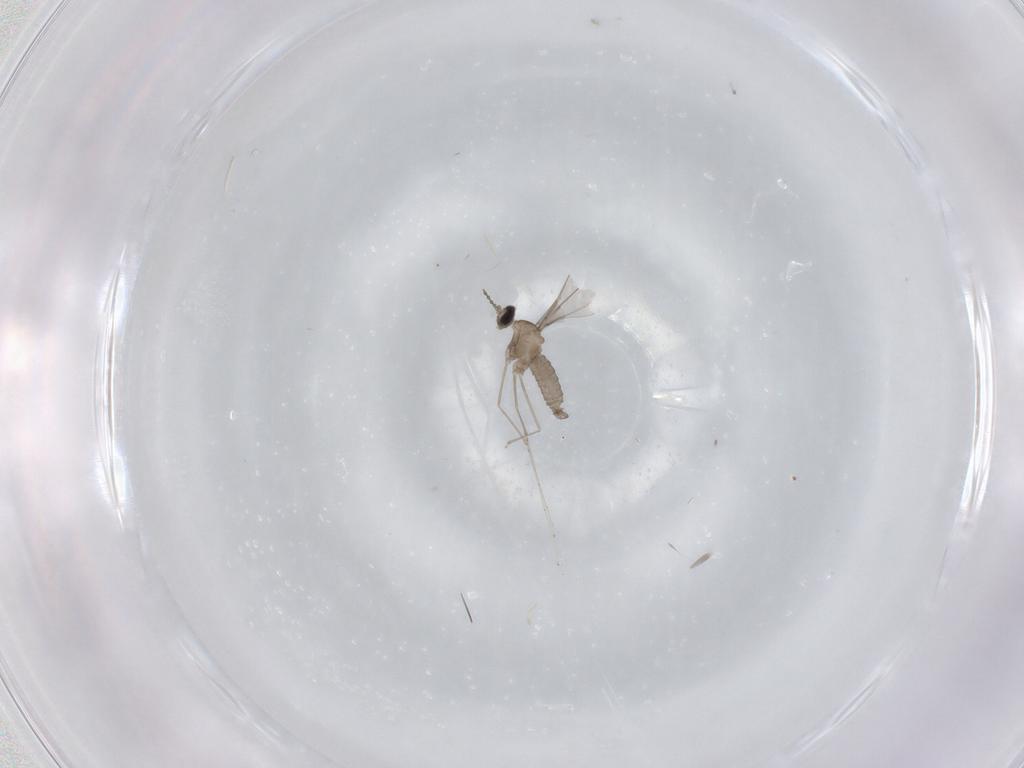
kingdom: Animalia
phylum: Arthropoda
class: Insecta
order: Diptera
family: Cecidomyiidae
